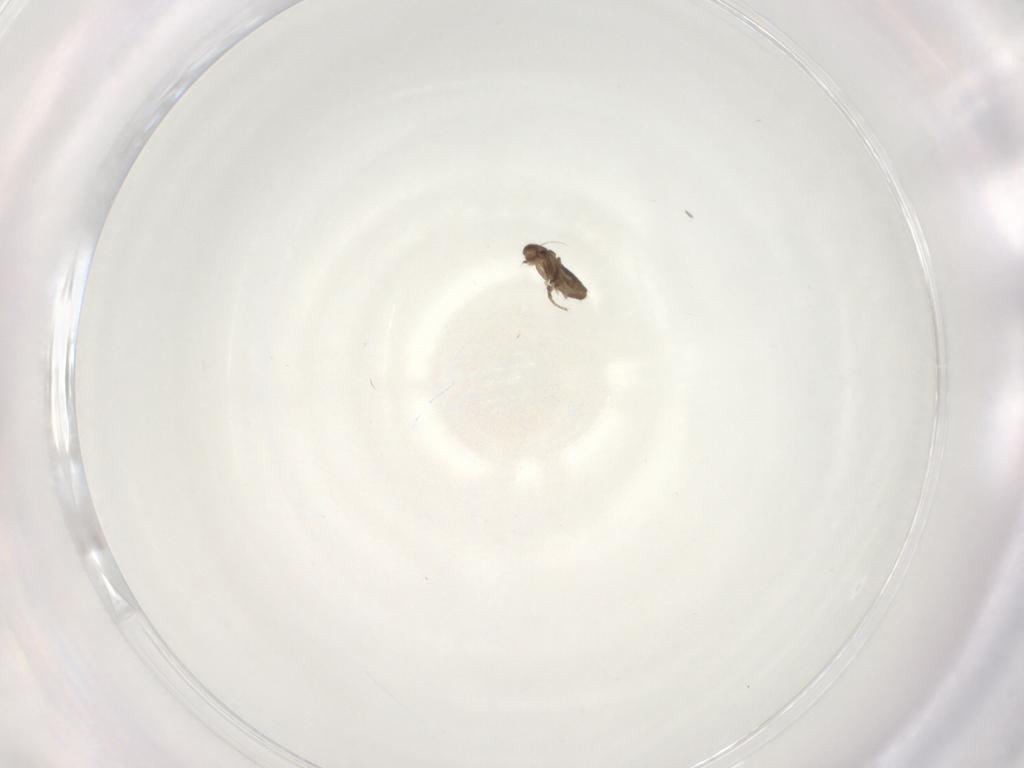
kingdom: Animalia
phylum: Arthropoda
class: Insecta
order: Diptera
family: Phoridae
